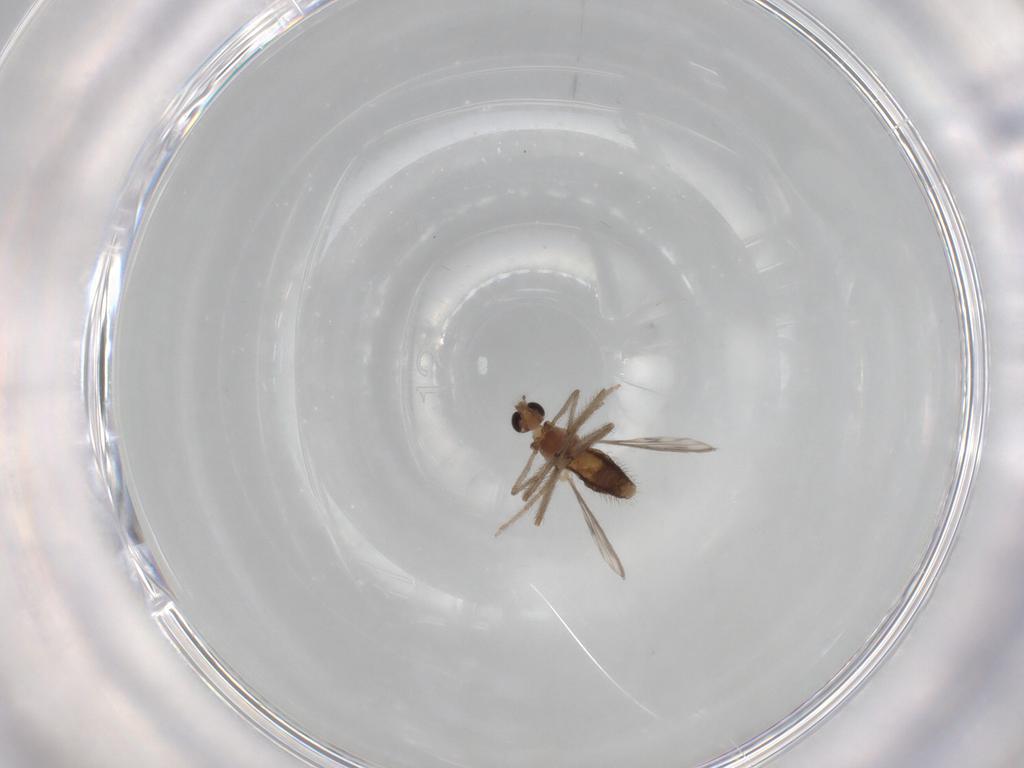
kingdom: Animalia
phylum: Arthropoda
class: Insecta
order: Diptera
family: Chironomidae
